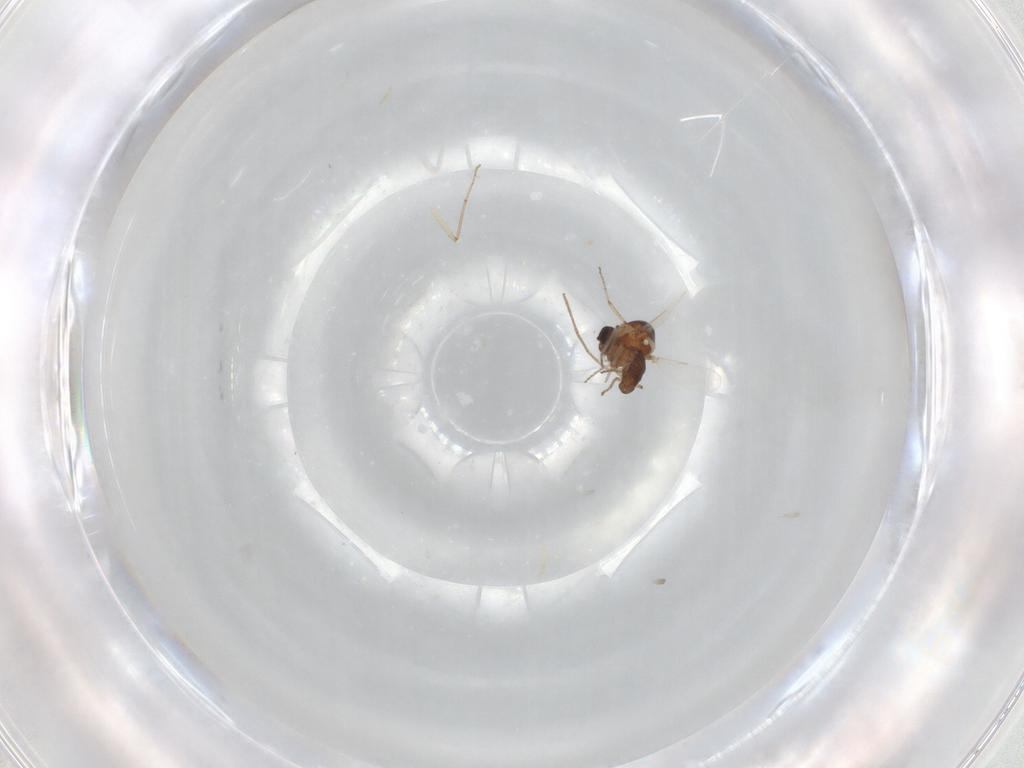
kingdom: Animalia
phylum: Arthropoda
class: Insecta
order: Diptera
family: Chironomidae
